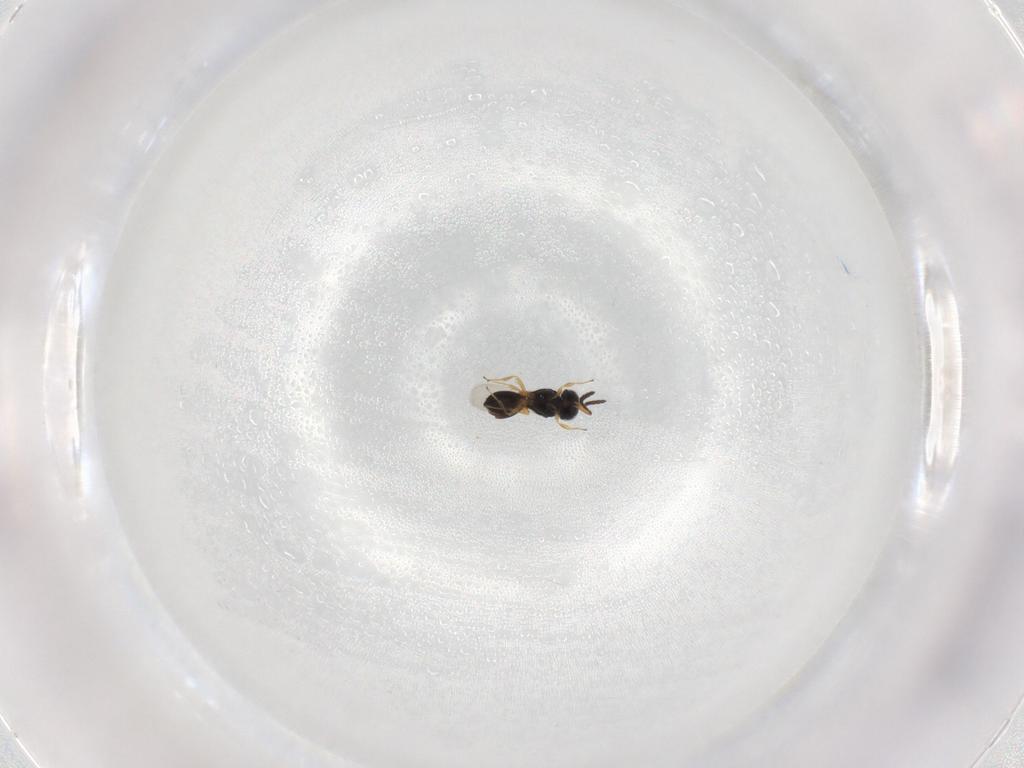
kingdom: Animalia
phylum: Arthropoda
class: Insecta
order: Hymenoptera
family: Scelionidae
